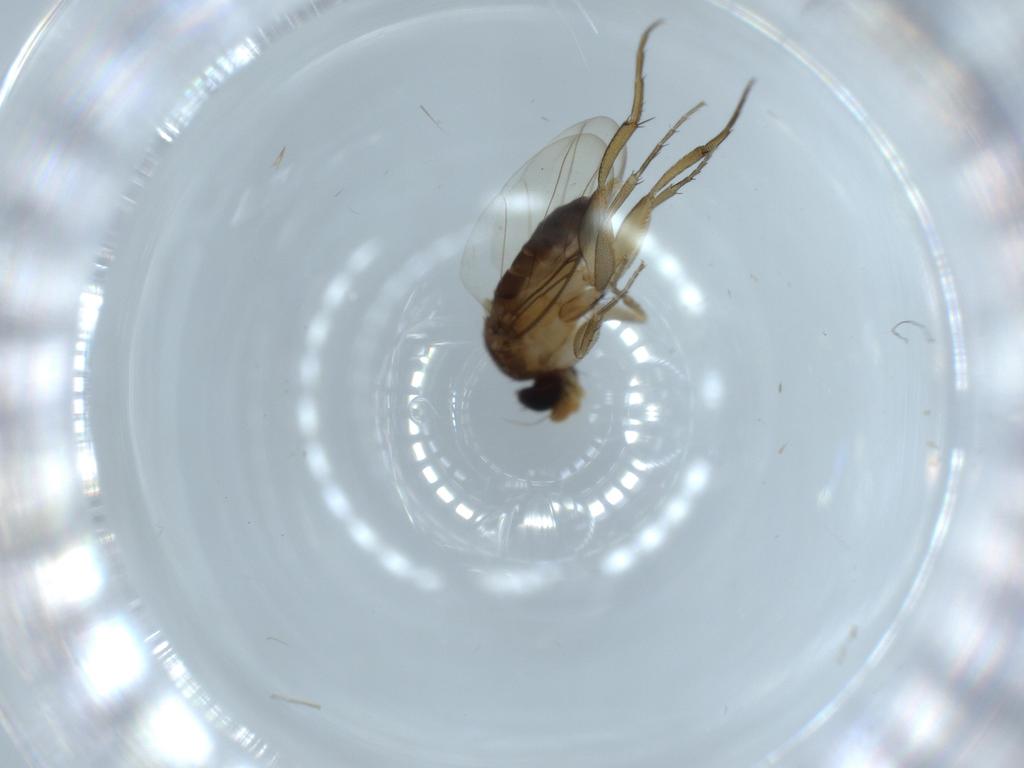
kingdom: Animalia
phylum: Arthropoda
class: Insecta
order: Diptera
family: Phoridae
